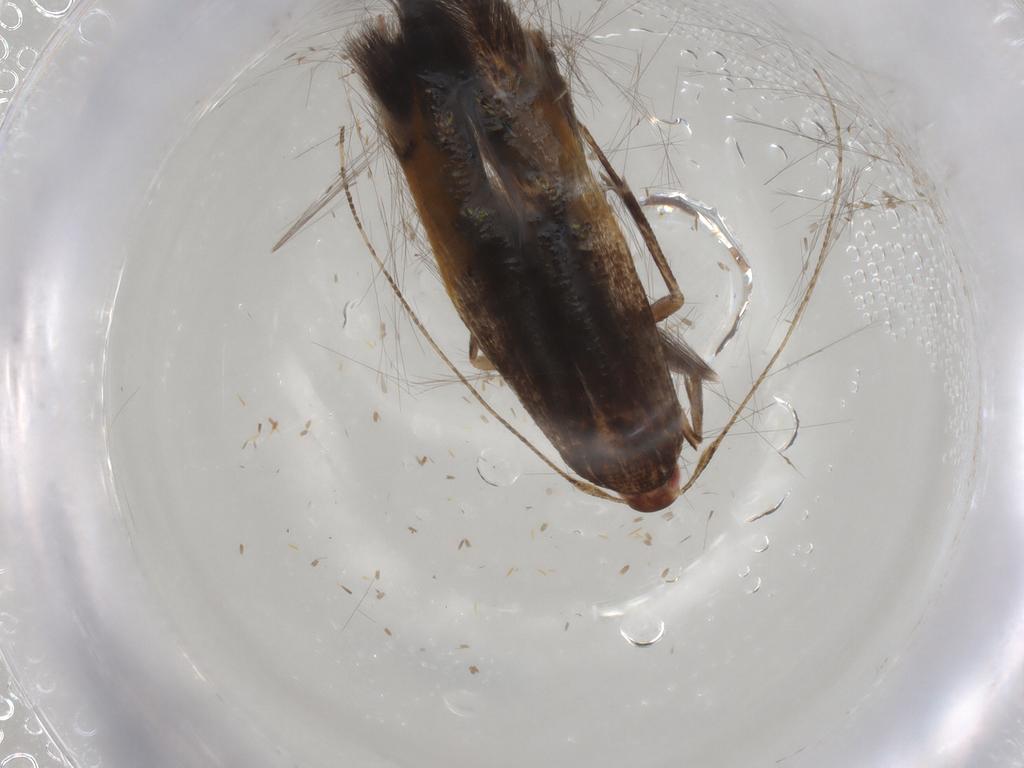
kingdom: Animalia
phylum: Arthropoda
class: Insecta
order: Lepidoptera
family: Cosmopterigidae
